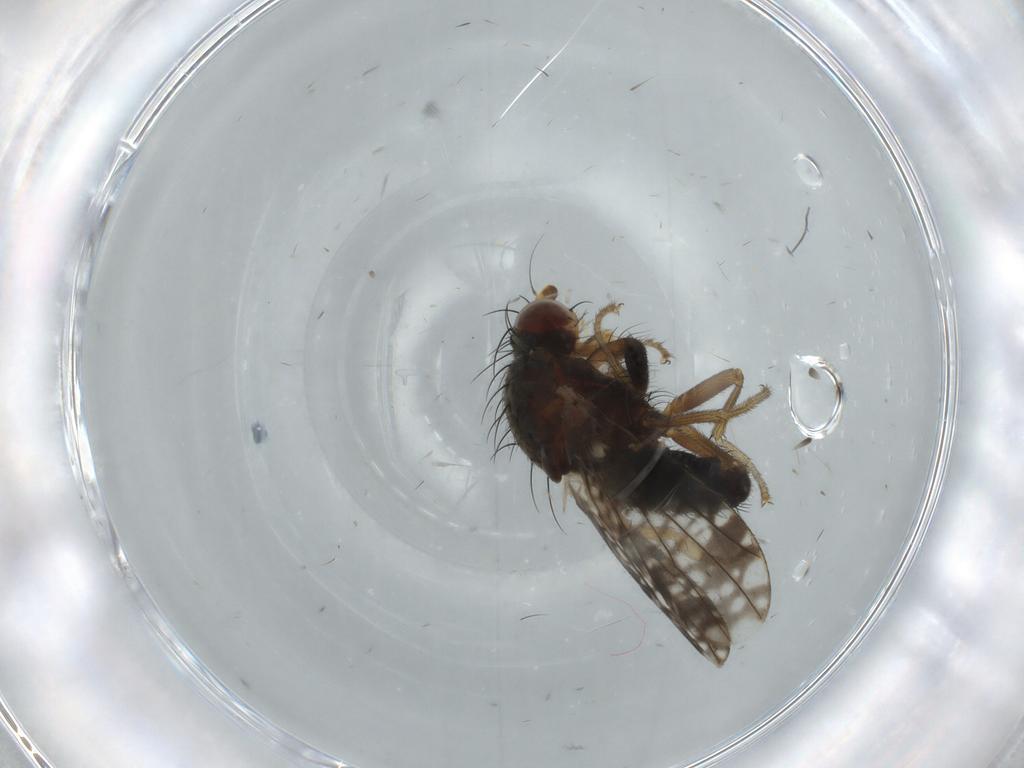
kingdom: Animalia
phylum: Arthropoda
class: Insecta
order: Diptera
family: Tephritidae
